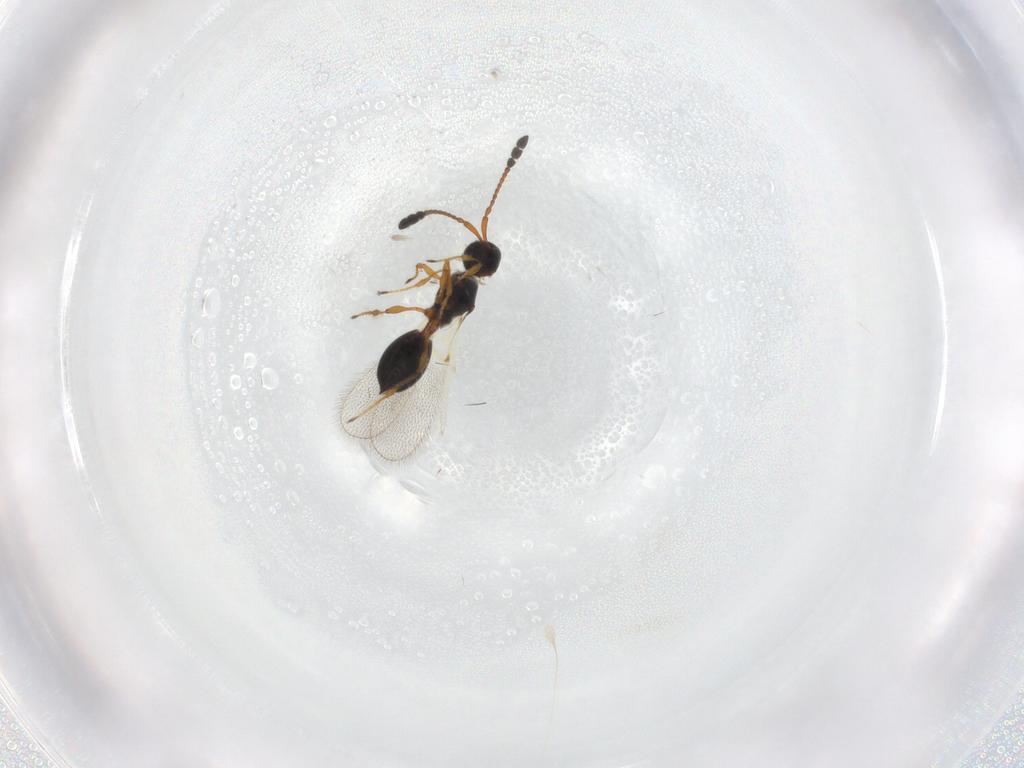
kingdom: Animalia
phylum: Arthropoda
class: Insecta
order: Hymenoptera
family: Diapriidae
